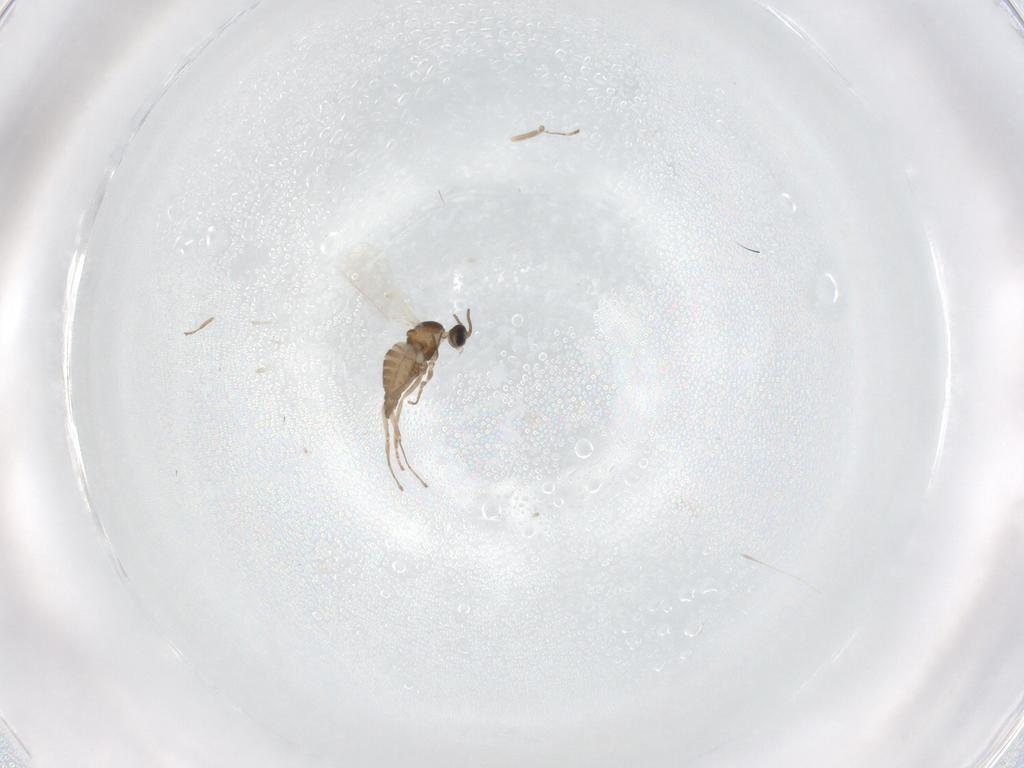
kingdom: Animalia
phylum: Arthropoda
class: Insecta
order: Diptera
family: Cecidomyiidae
